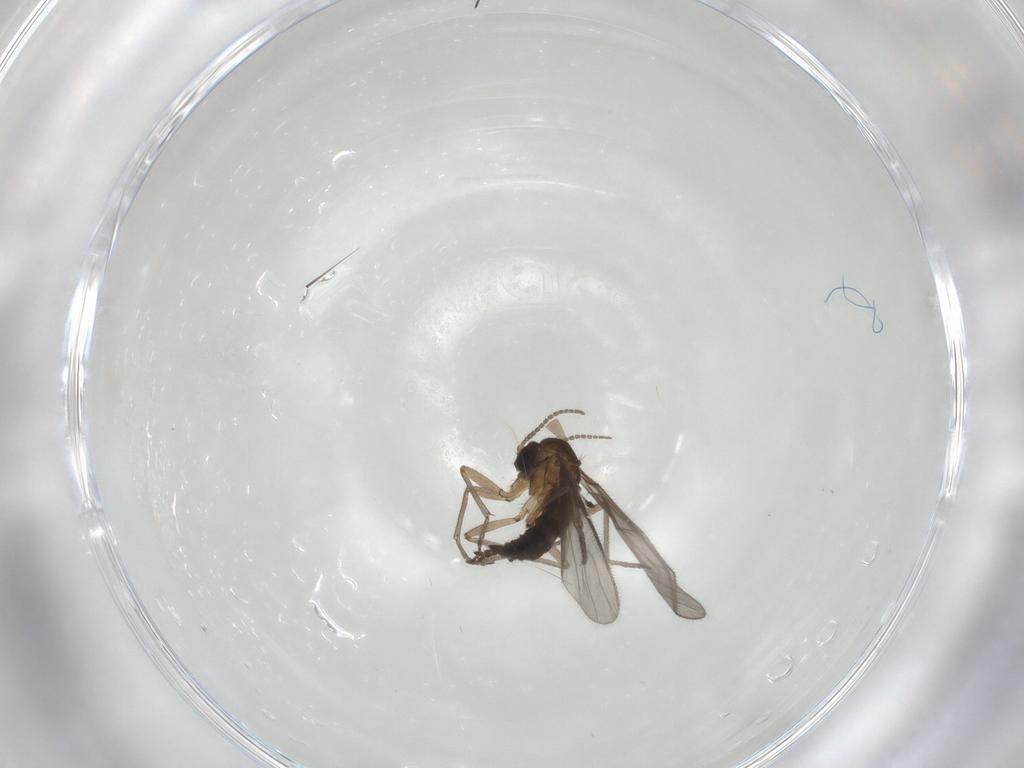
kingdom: Animalia
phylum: Arthropoda
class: Insecta
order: Diptera
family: Sciaridae
